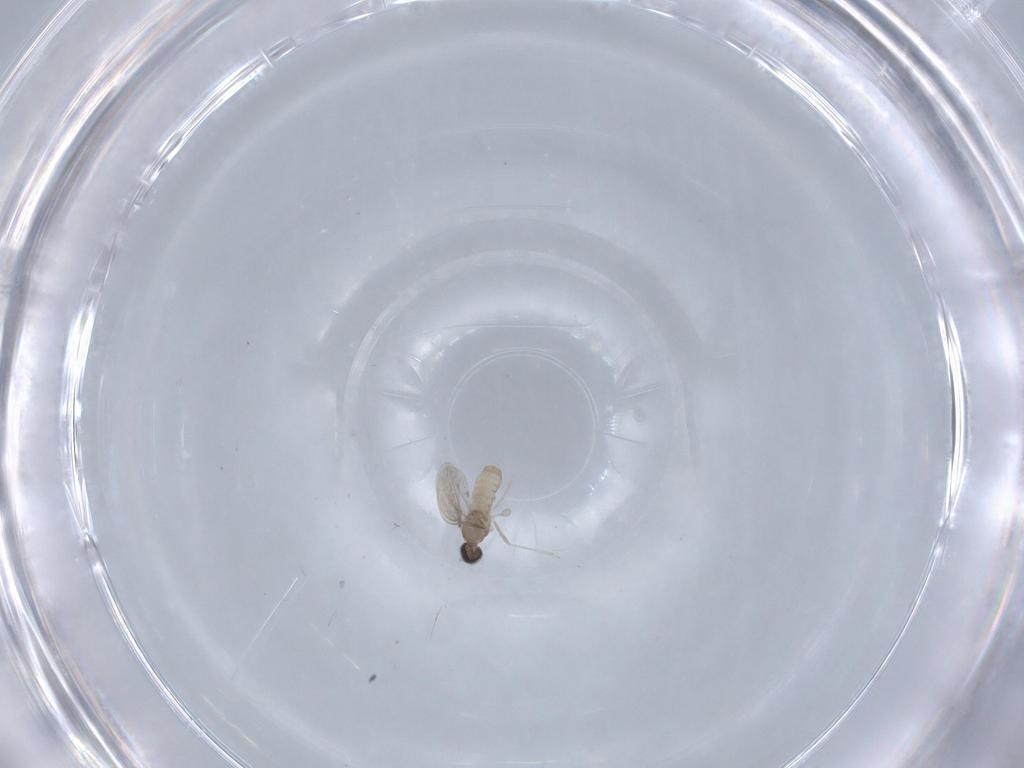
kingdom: Animalia
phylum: Arthropoda
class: Insecta
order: Diptera
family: Cecidomyiidae
